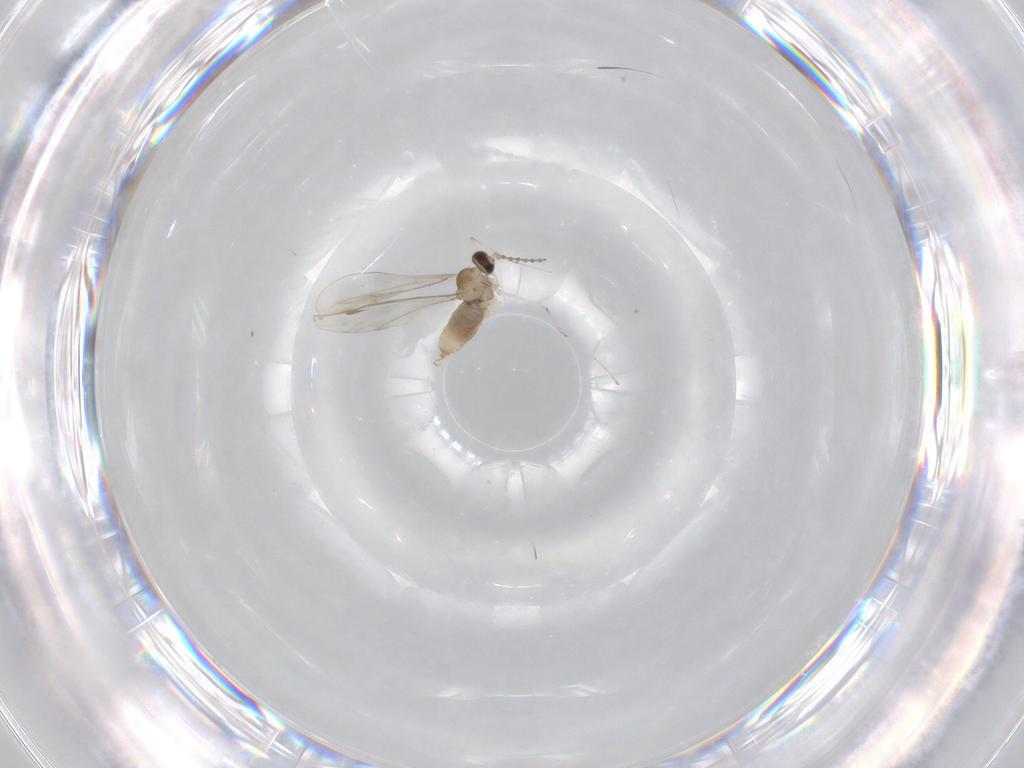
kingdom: Animalia
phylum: Arthropoda
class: Insecta
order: Diptera
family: Cecidomyiidae
